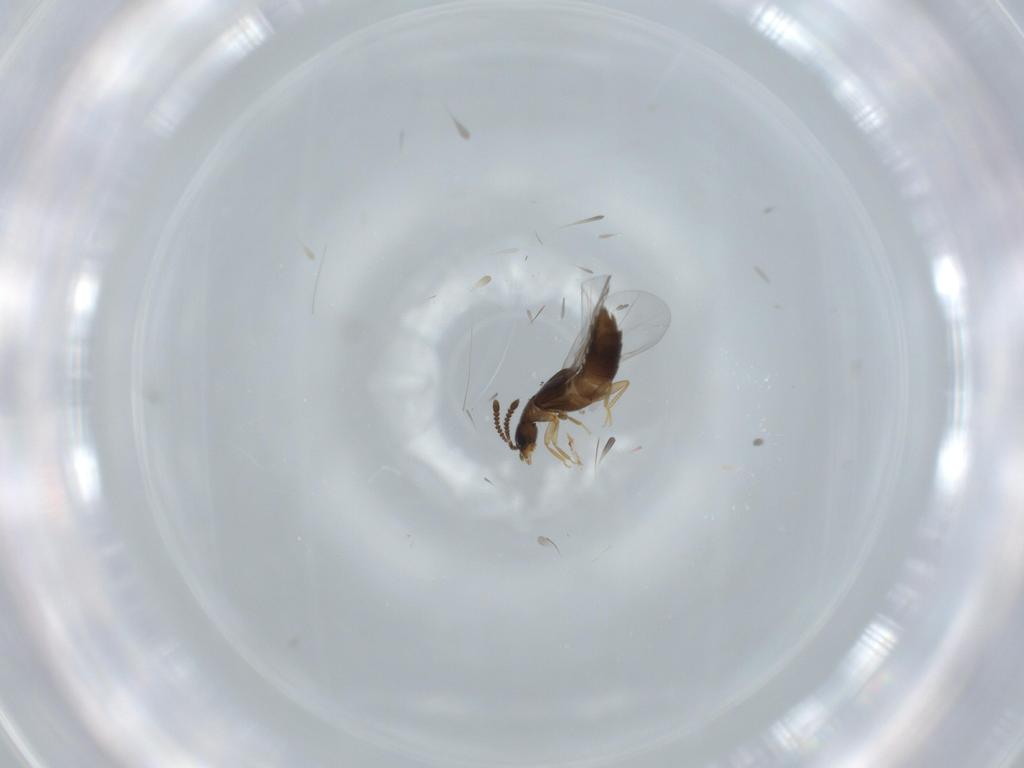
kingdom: Animalia
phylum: Arthropoda
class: Insecta
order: Coleoptera
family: Staphylinidae
